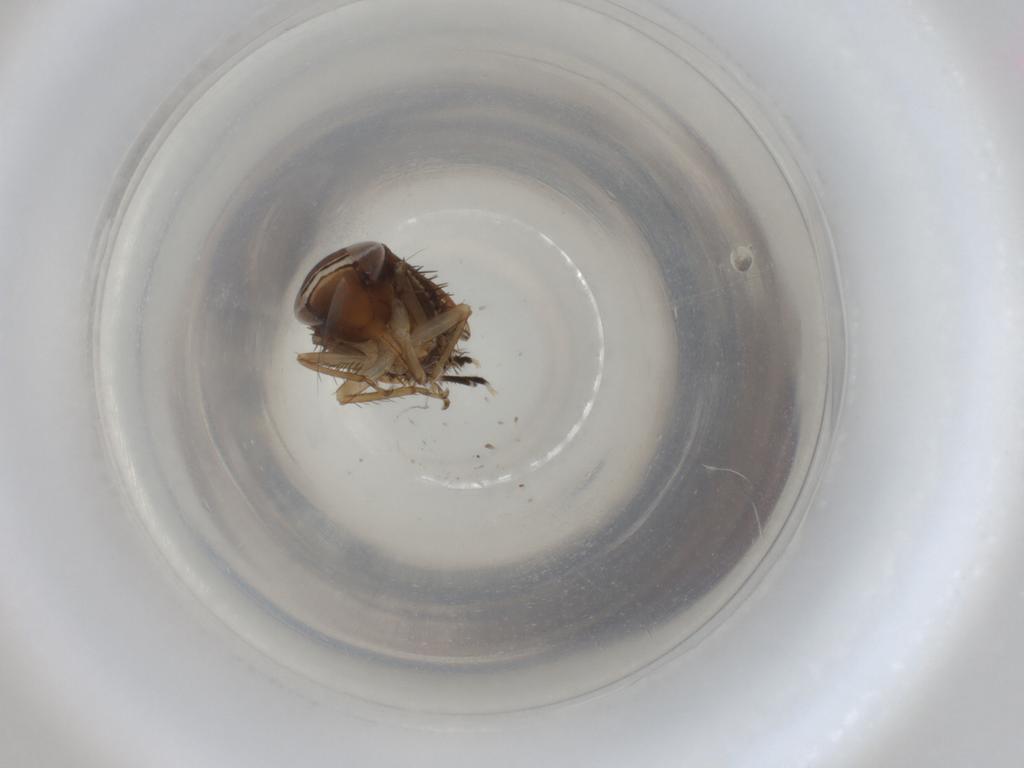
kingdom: Animalia
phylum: Arthropoda
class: Insecta
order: Hemiptera
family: Cicadellidae
